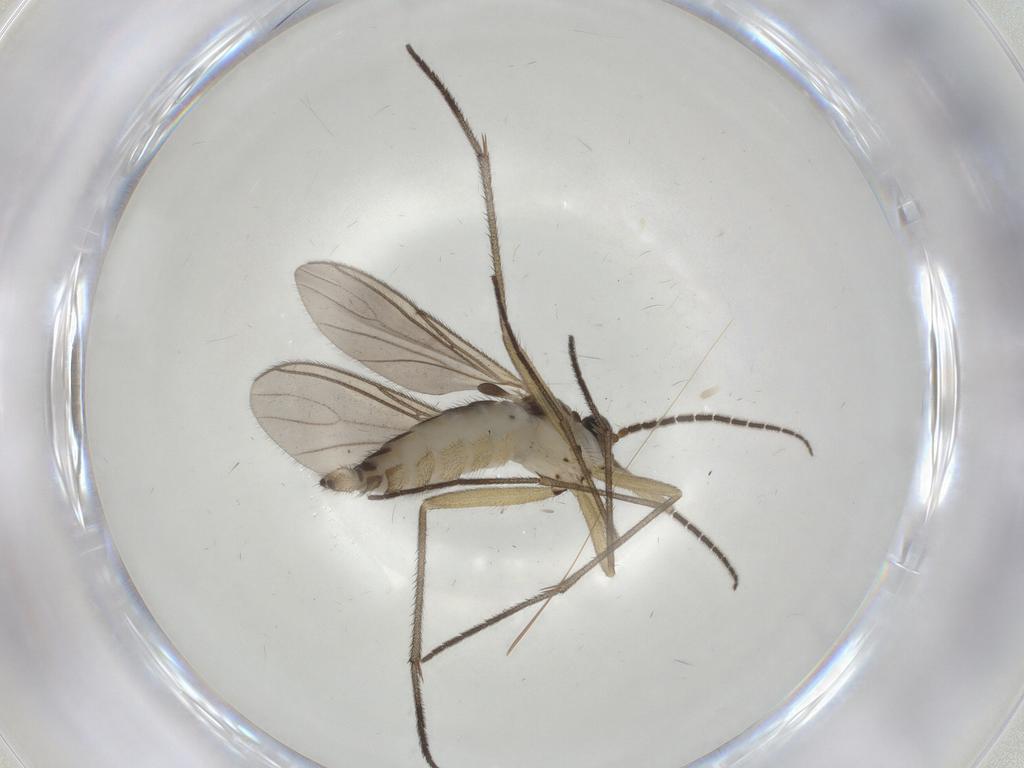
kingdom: Animalia
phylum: Arthropoda
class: Insecta
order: Diptera
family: Sciaridae
